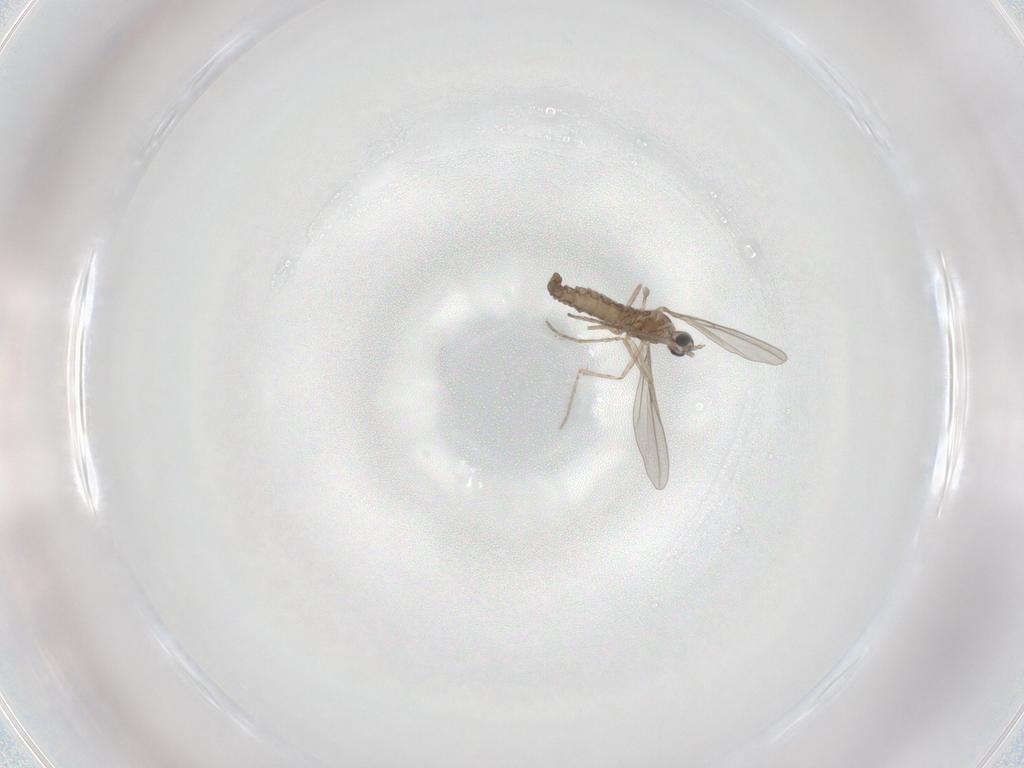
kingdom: Animalia
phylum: Arthropoda
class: Insecta
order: Diptera
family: Cecidomyiidae
